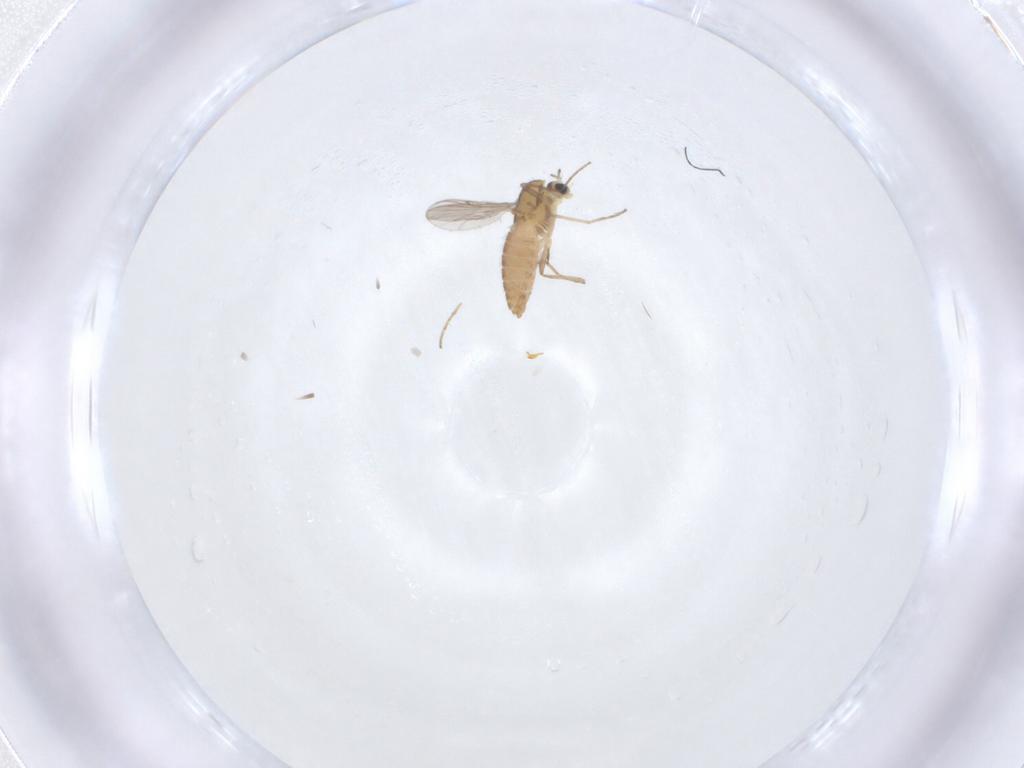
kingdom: Animalia
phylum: Arthropoda
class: Insecta
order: Diptera
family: Chironomidae
